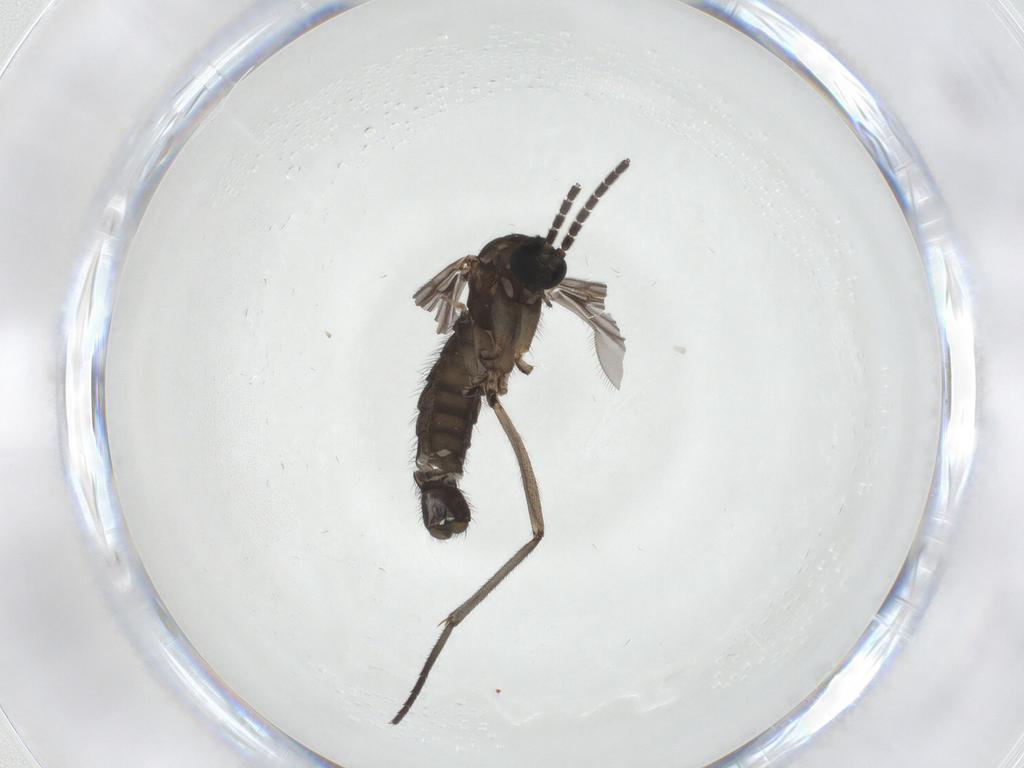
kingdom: Animalia
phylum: Arthropoda
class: Insecta
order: Diptera
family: Sciaridae
